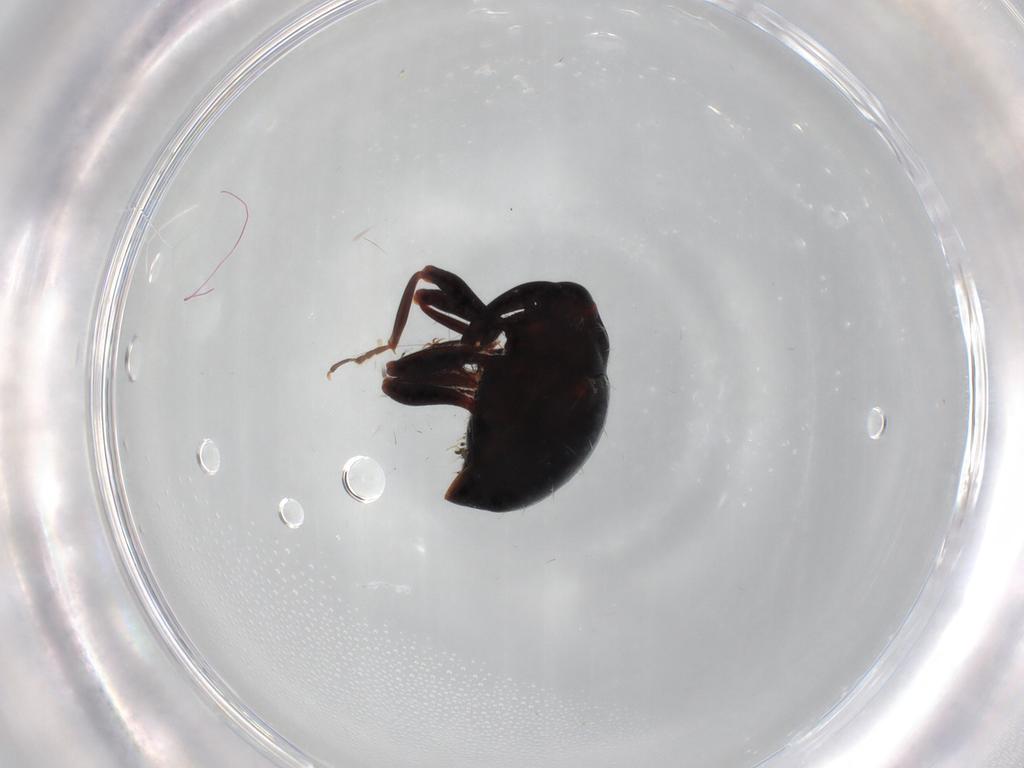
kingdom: Animalia
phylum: Arthropoda
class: Insecta
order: Coleoptera
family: Curculionidae
